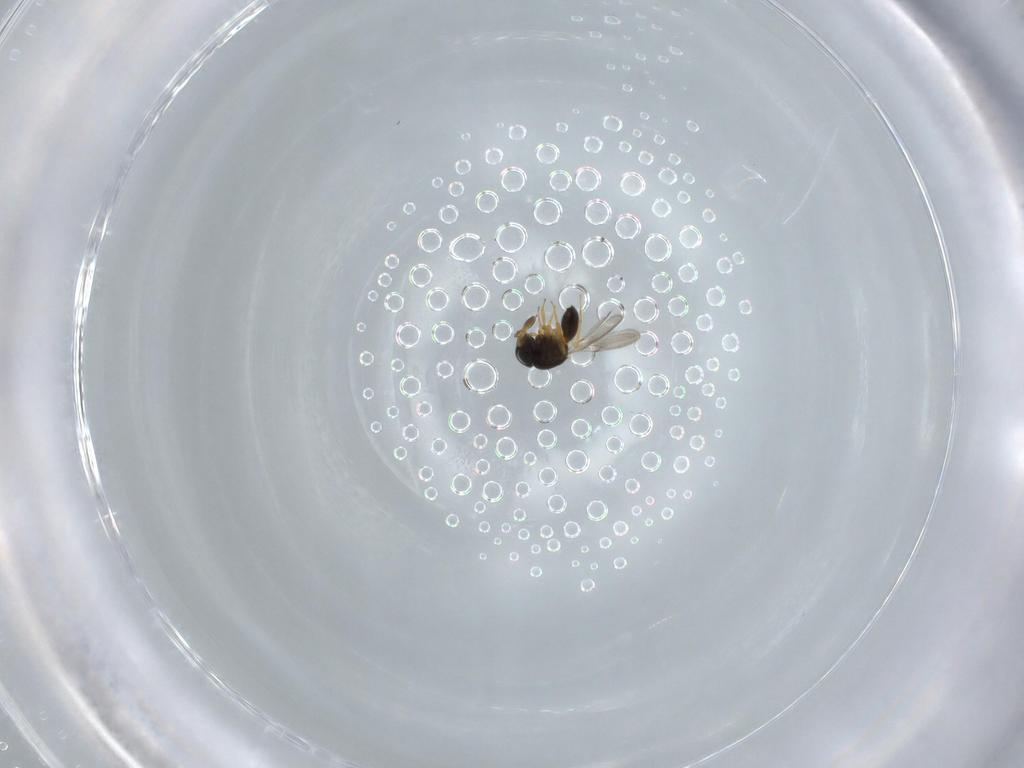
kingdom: Animalia
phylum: Arthropoda
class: Insecta
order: Hymenoptera
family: Scelionidae
